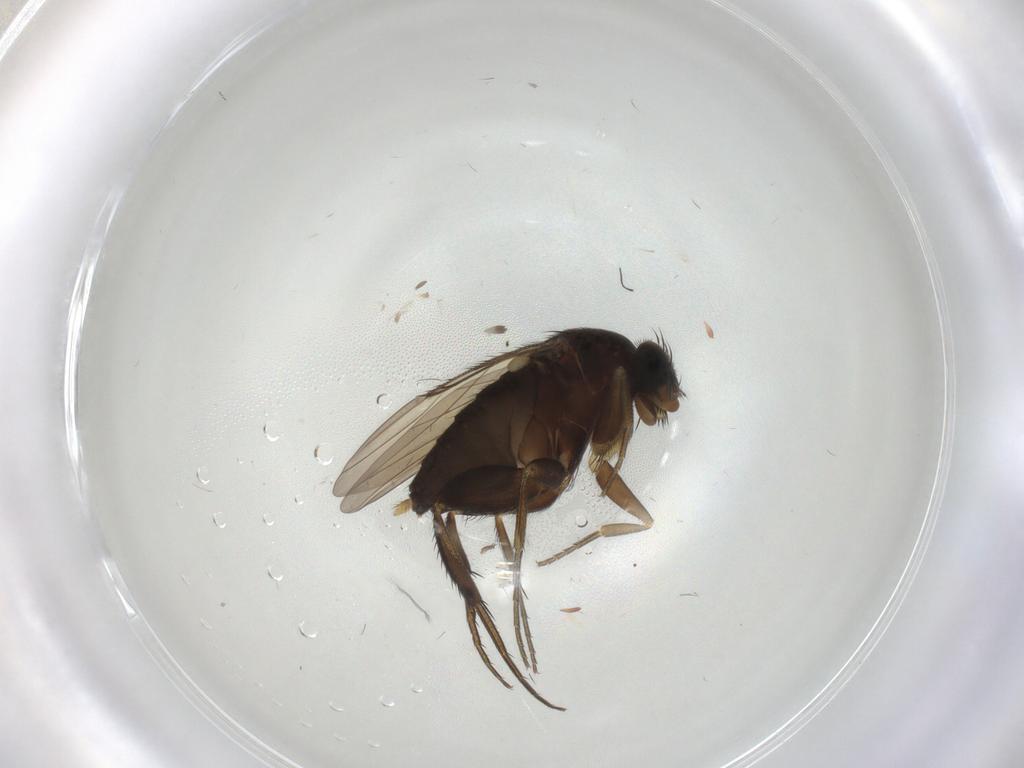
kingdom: Animalia
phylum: Arthropoda
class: Insecta
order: Diptera
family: Phoridae
